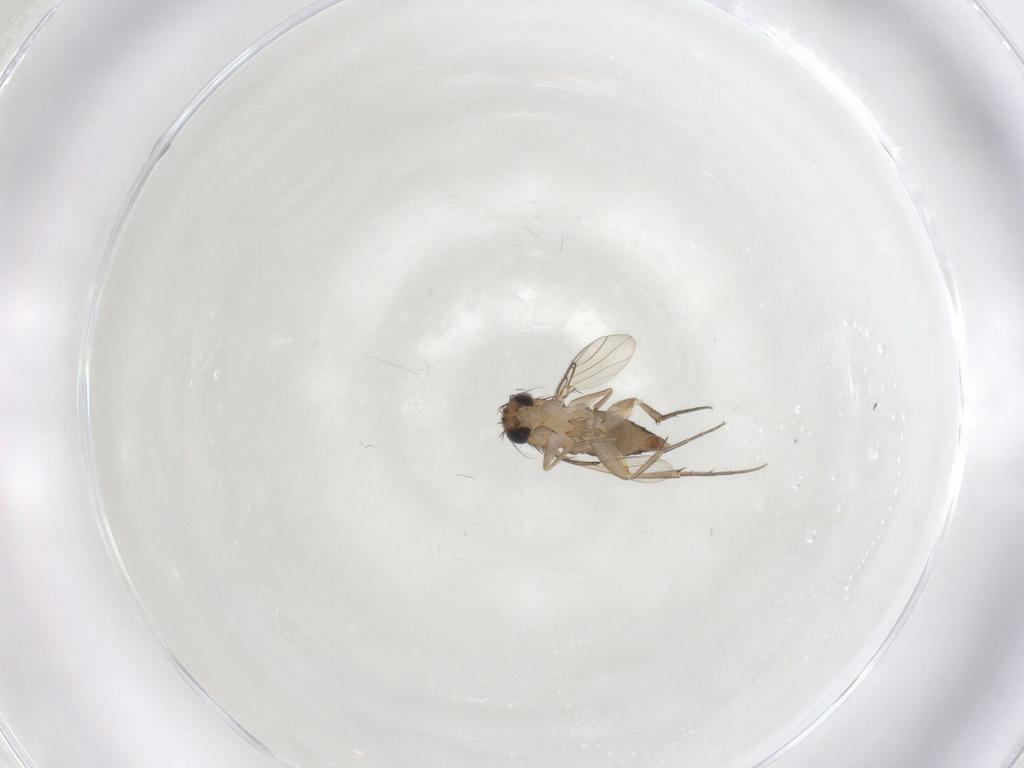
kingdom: Animalia
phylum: Arthropoda
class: Insecta
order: Diptera
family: Phoridae
